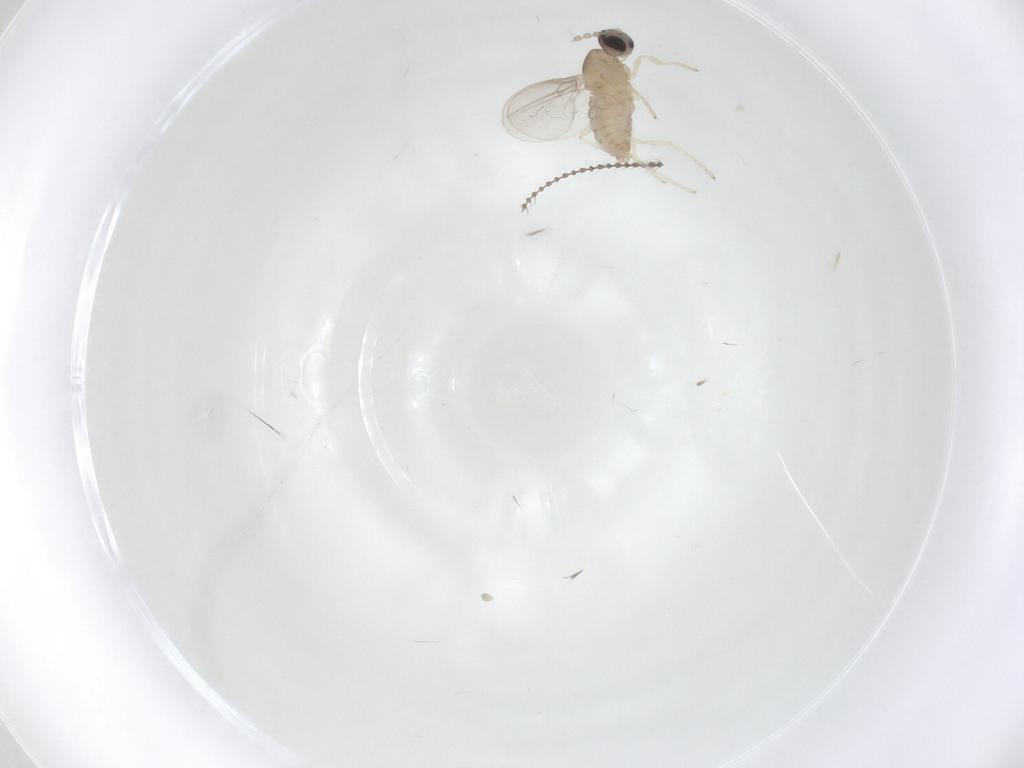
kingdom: Animalia
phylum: Arthropoda
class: Insecta
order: Diptera
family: Cecidomyiidae
